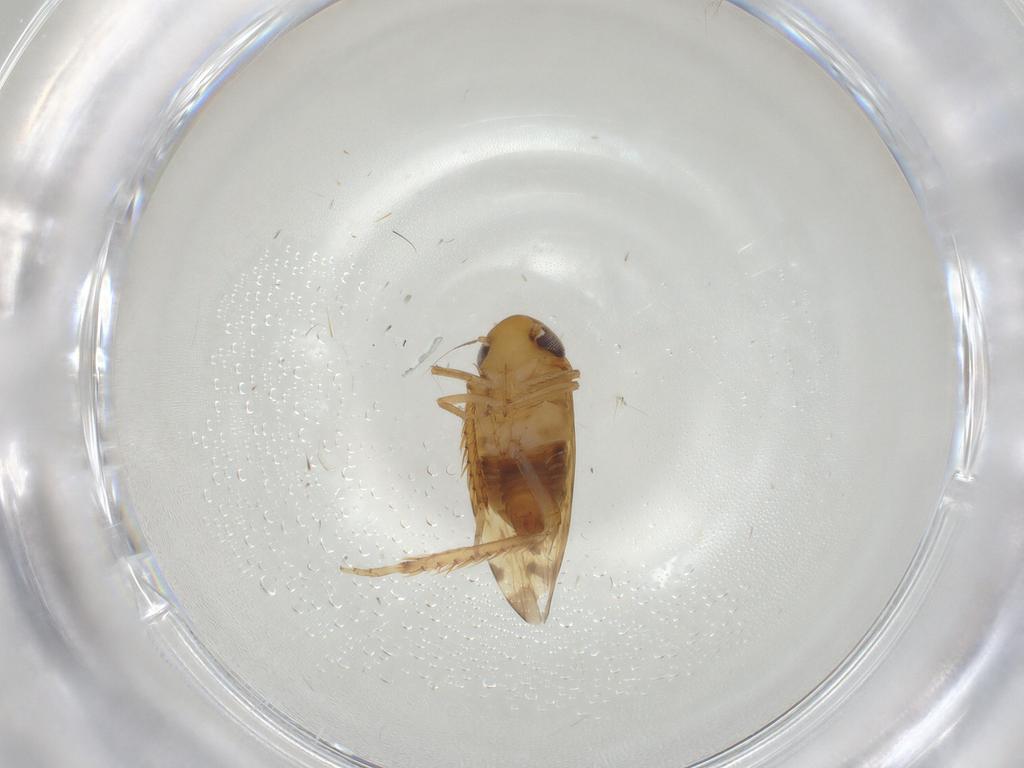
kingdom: Animalia
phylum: Arthropoda
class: Insecta
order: Hemiptera
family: Cicadellidae
